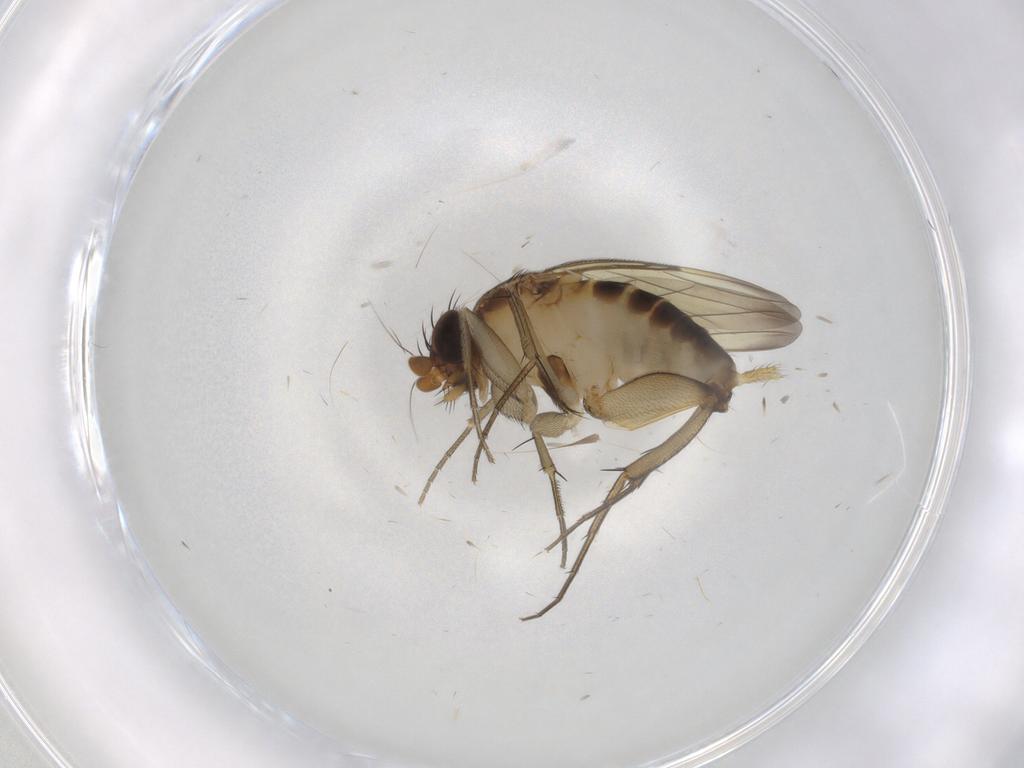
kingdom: Animalia
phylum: Arthropoda
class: Insecta
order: Diptera
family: Phoridae
